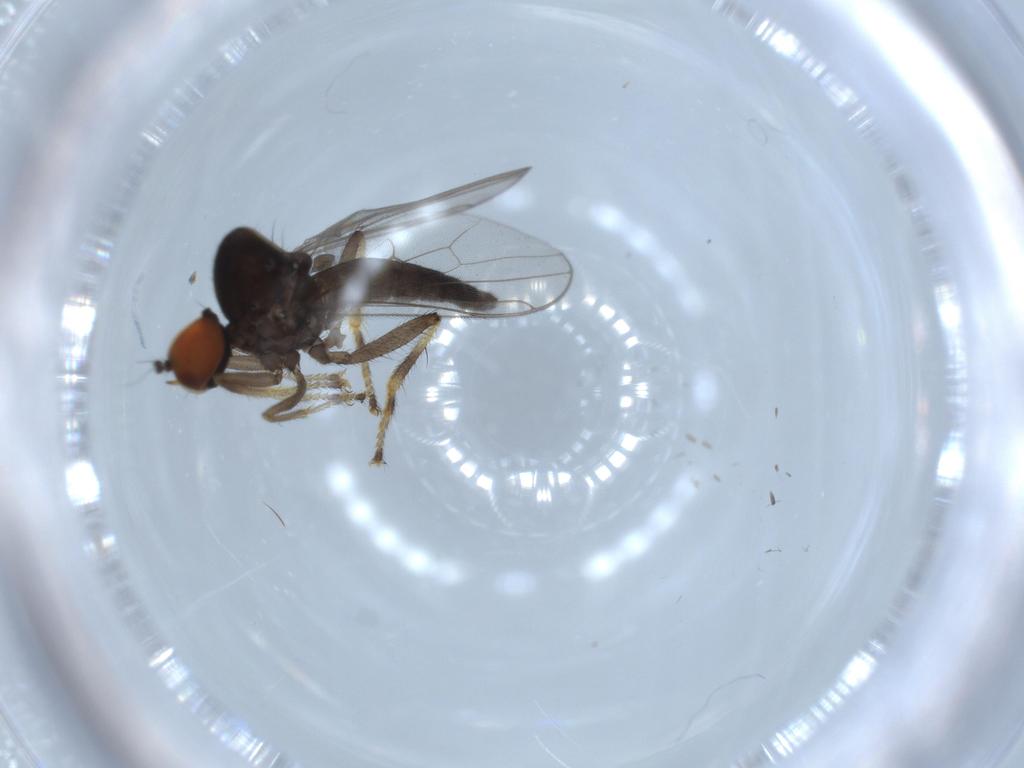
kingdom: Animalia
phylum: Arthropoda
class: Insecta
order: Diptera
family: Hybotidae
